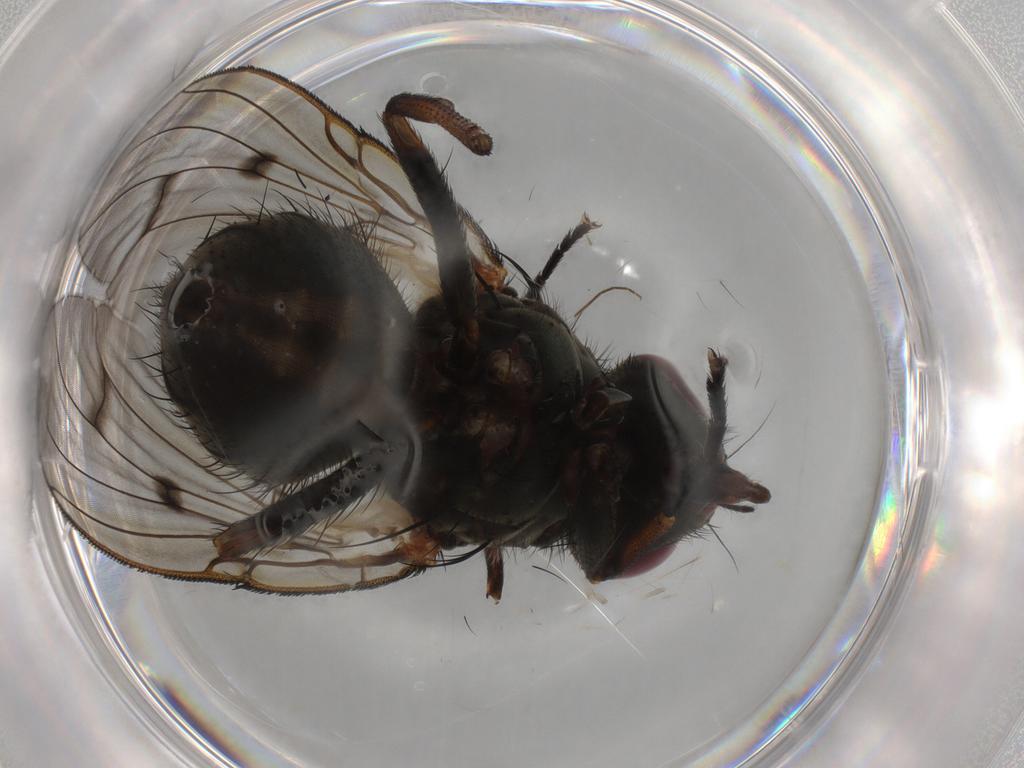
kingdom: Animalia
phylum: Arthropoda
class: Insecta
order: Diptera
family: Muscidae
